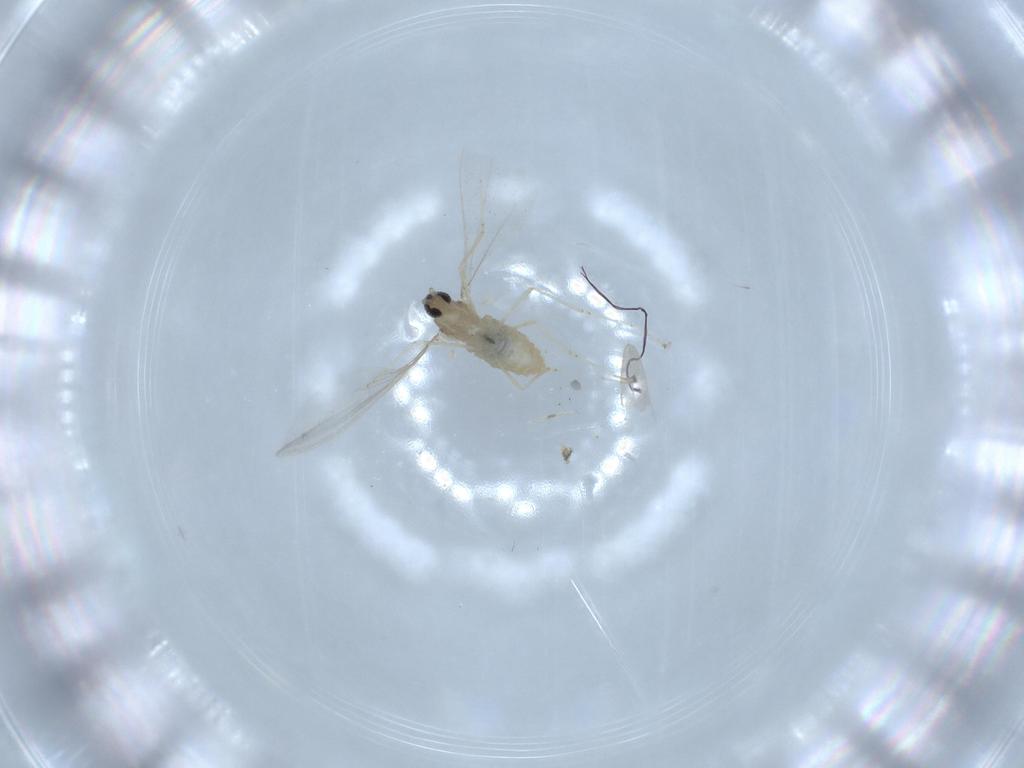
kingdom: Animalia
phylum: Arthropoda
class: Insecta
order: Diptera
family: Cecidomyiidae
